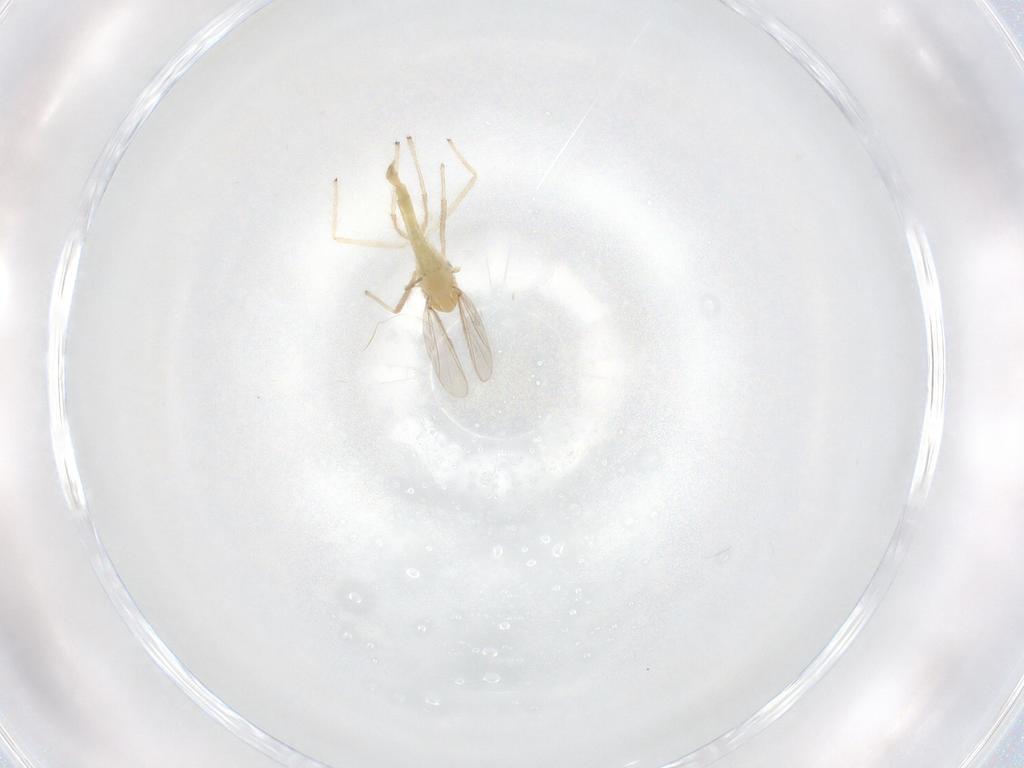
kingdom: Animalia
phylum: Arthropoda
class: Insecta
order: Diptera
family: Chironomidae
